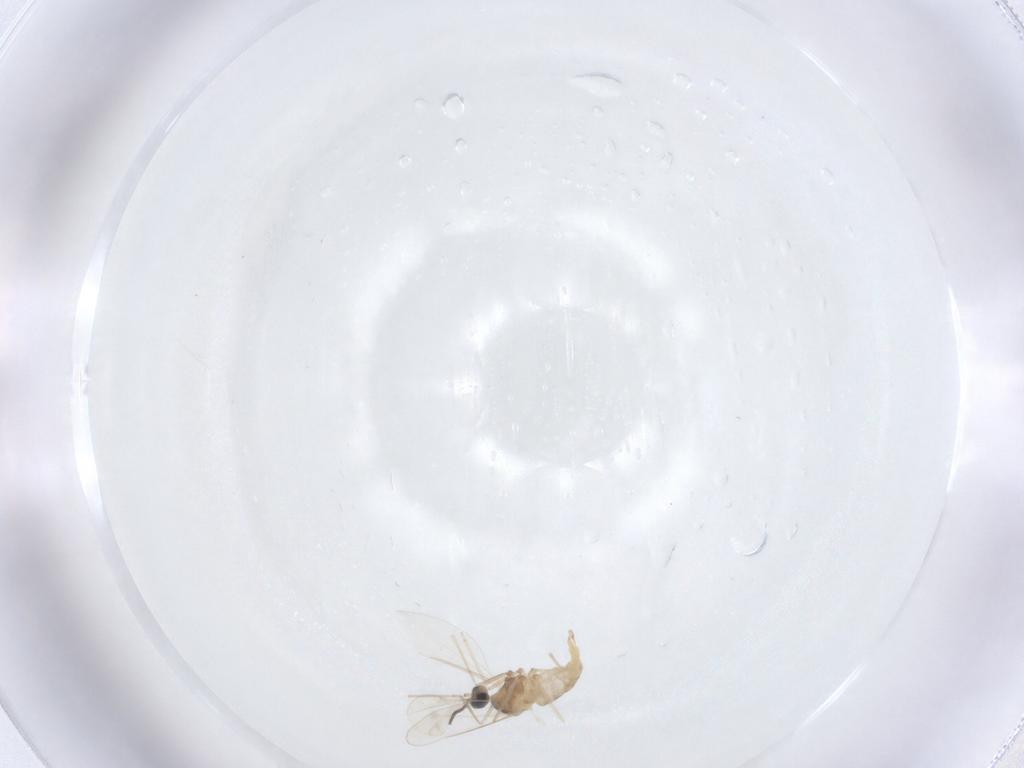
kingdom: Animalia
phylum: Arthropoda
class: Insecta
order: Diptera
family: Cecidomyiidae
